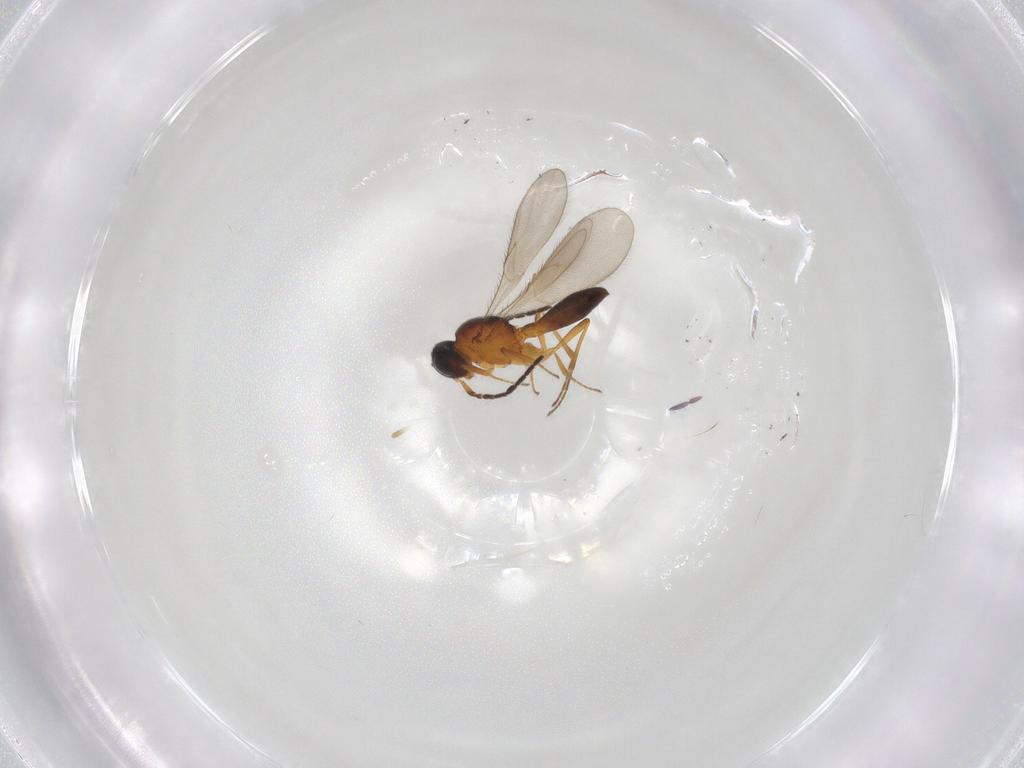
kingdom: Animalia
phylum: Arthropoda
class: Insecta
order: Hymenoptera
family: Scelionidae
